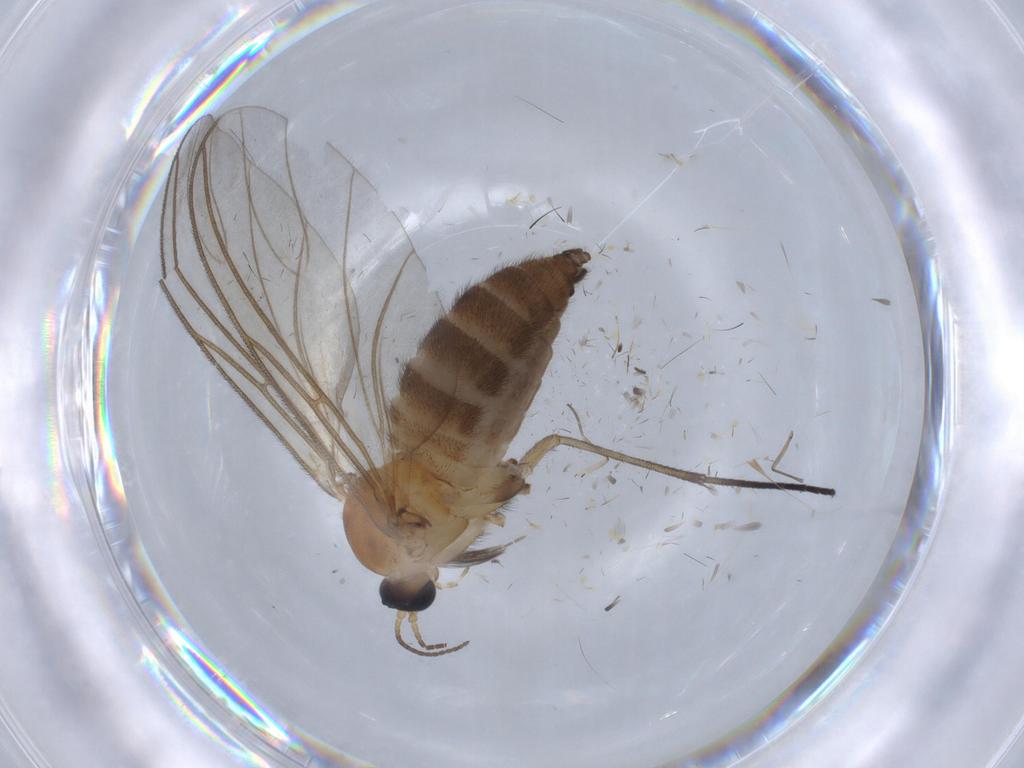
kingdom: Animalia
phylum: Arthropoda
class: Insecta
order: Diptera
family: Sciaridae
